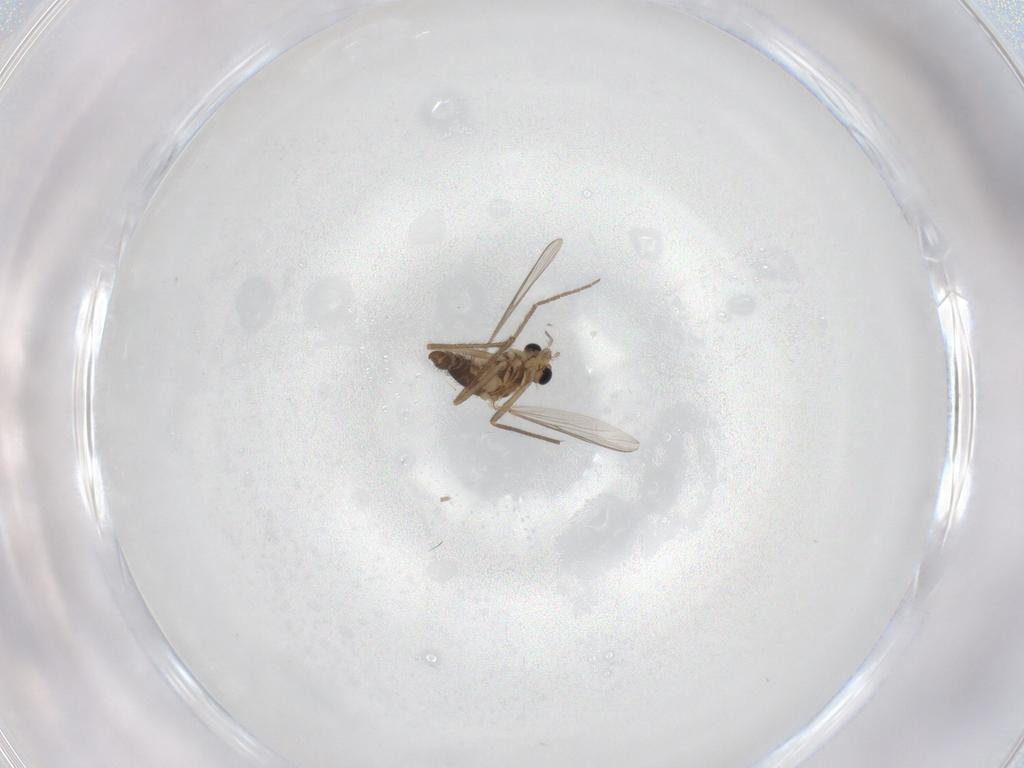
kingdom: Animalia
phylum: Arthropoda
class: Insecta
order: Diptera
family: Chironomidae
